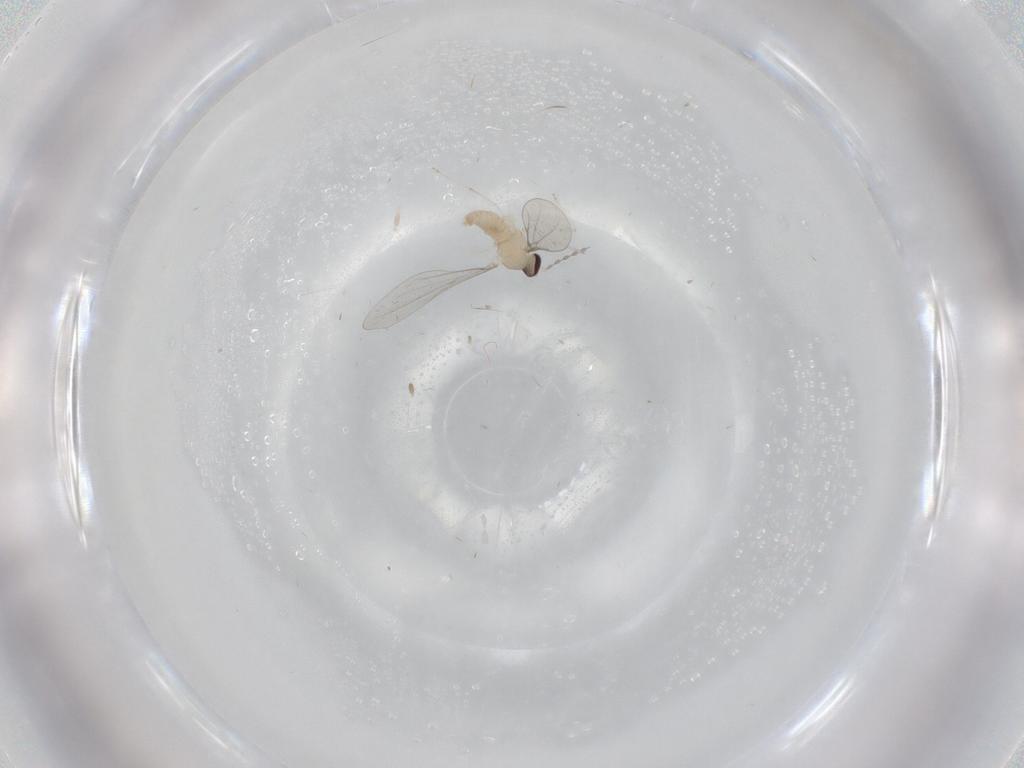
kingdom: Animalia
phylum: Arthropoda
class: Insecta
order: Diptera
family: Cecidomyiidae
